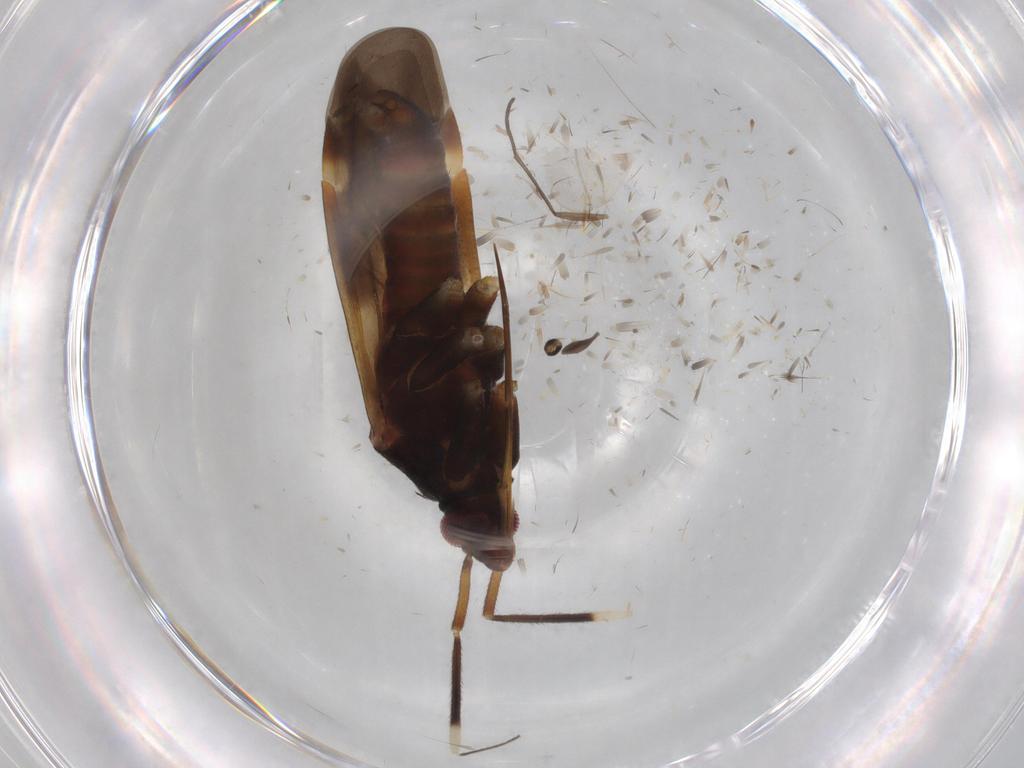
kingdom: Animalia
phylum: Arthropoda
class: Insecta
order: Hemiptera
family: Miridae
